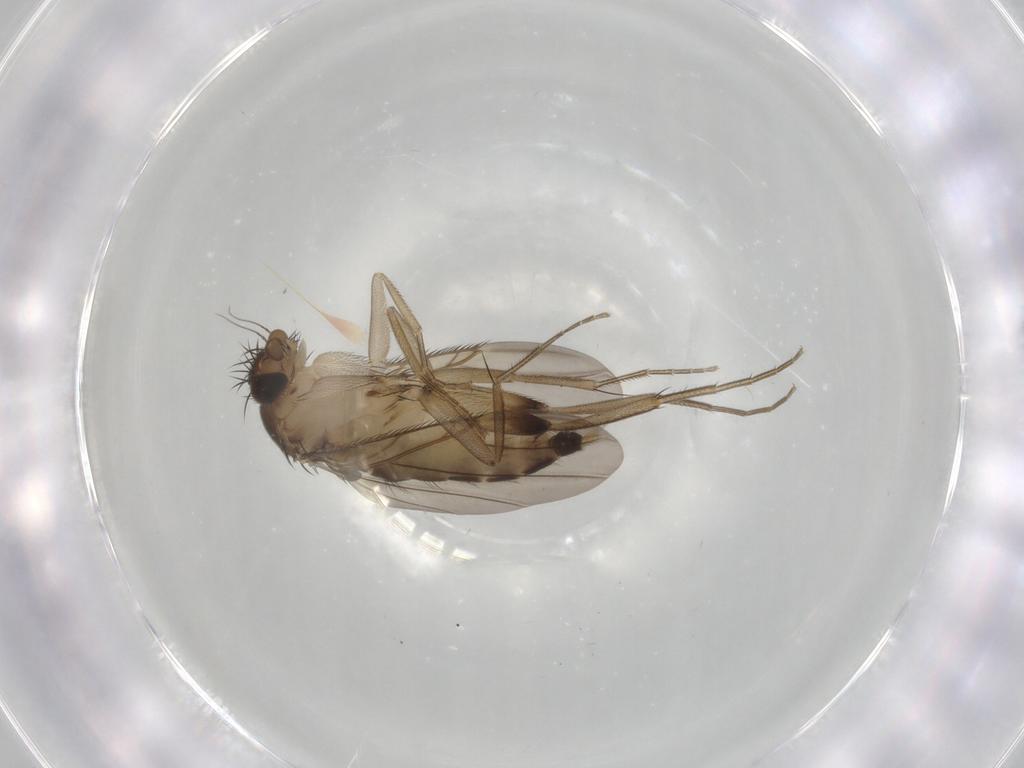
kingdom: Animalia
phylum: Arthropoda
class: Insecta
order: Diptera
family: Phoridae
